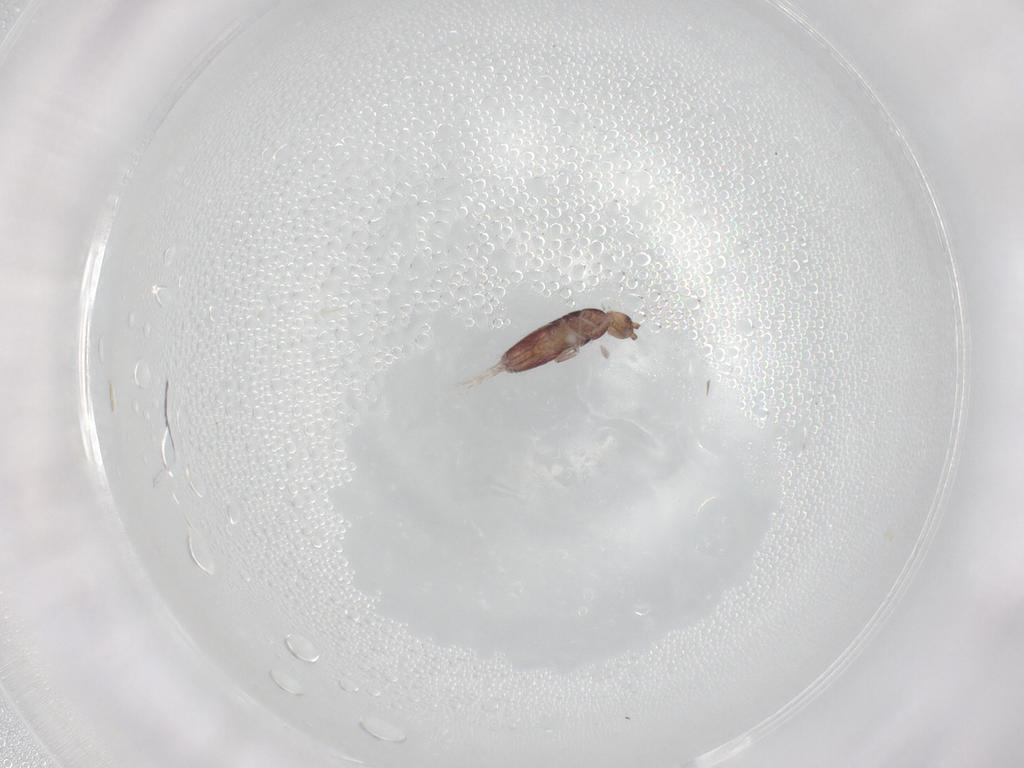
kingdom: Animalia
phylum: Arthropoda
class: Collembola
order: Entomobryomorpha
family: Entomobryidae
